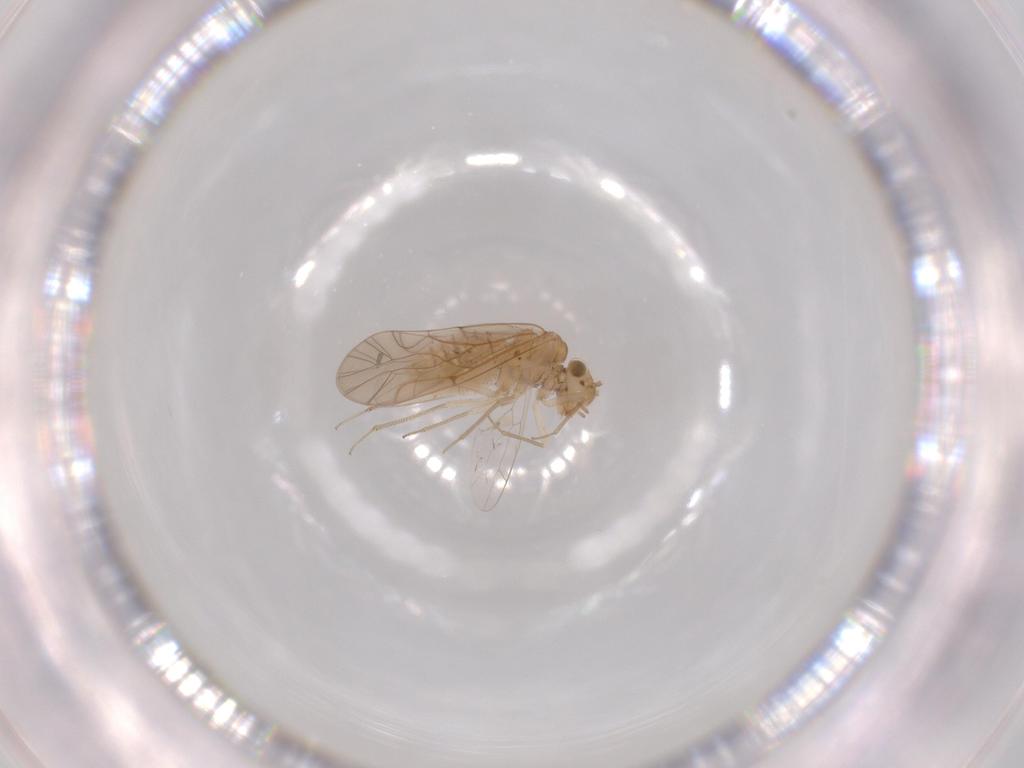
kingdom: Animalia
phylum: Arthropoda
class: Insecta
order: Psocodea
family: Lachesillidae
